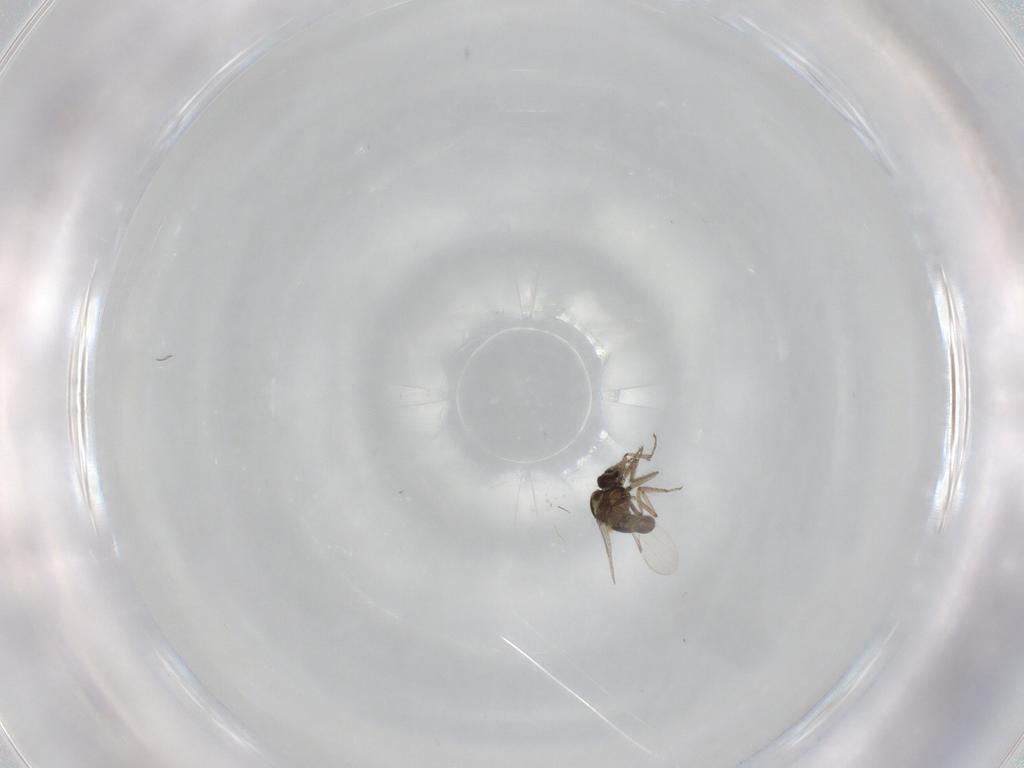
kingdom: Animalia
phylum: Arthropoda
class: Insecta
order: Diptera
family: Ceratopogonidae
